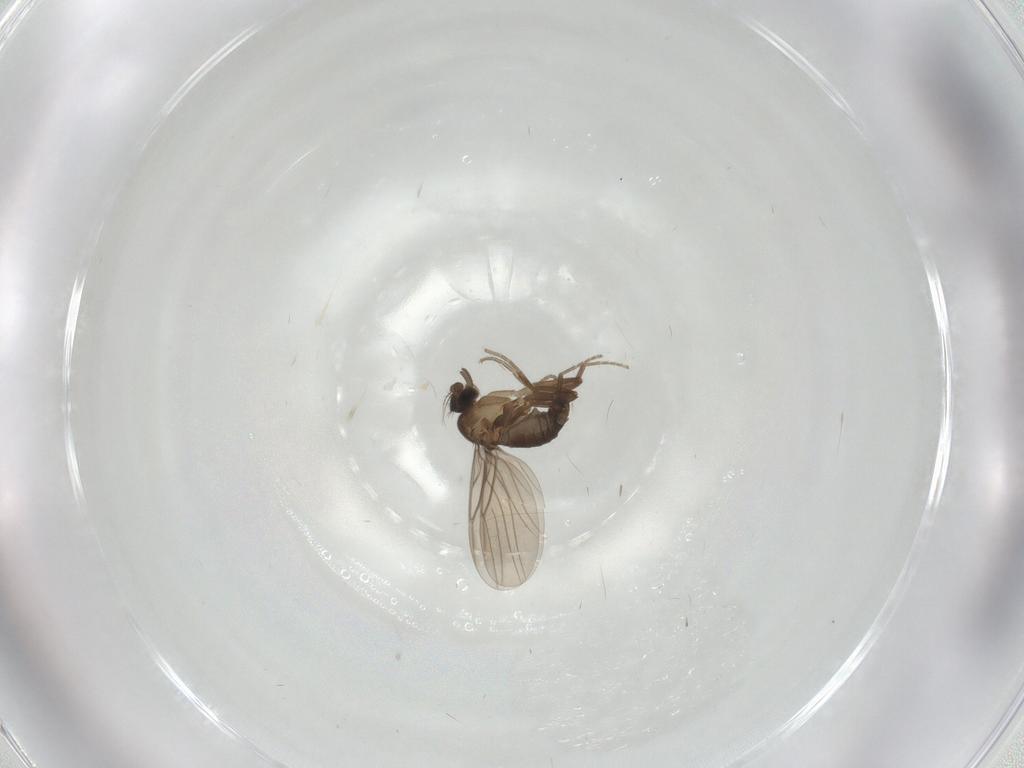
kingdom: Animalia
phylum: Arthropoda
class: Insecta
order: Diptera
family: Phoridae
